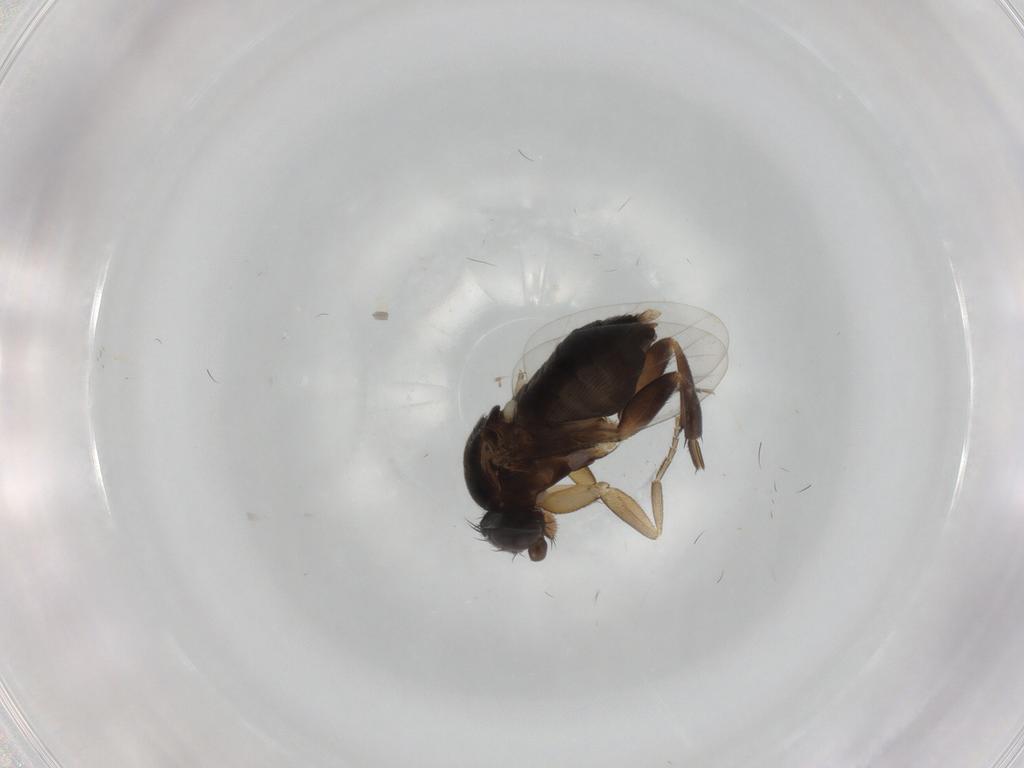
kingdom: Animalia
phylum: Arthropoda
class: Insecta
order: Diptera
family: Phoridae
